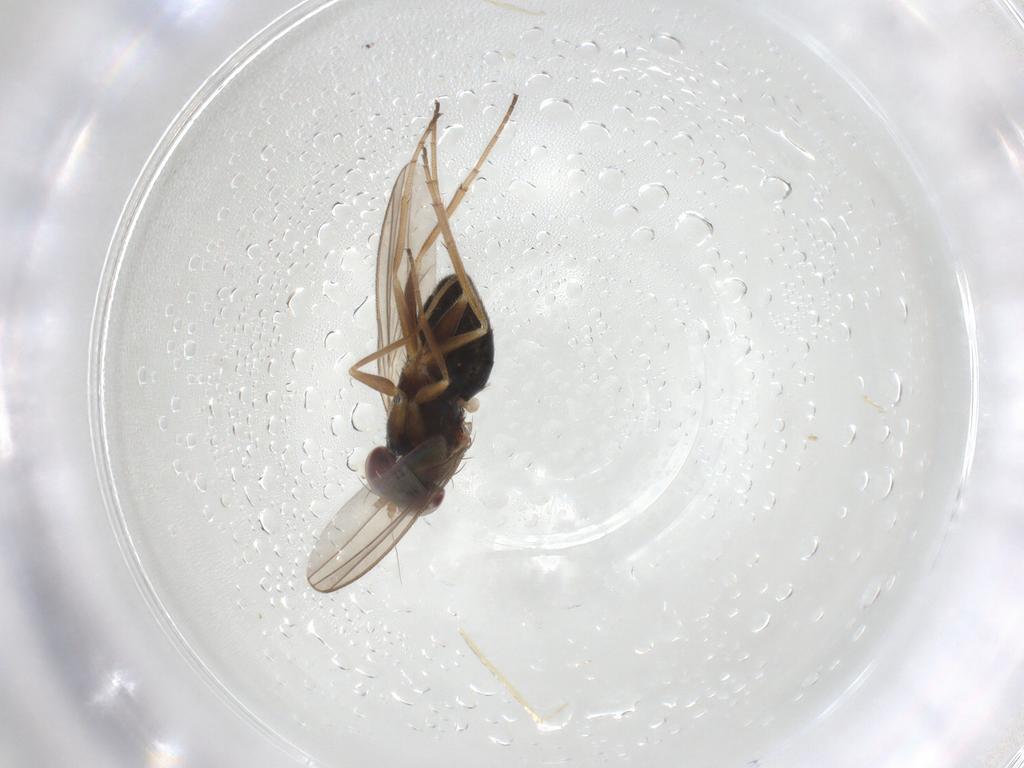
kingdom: Animalia
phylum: Arthropoda
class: Insecta
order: Diptera
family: Dolichopodidae
